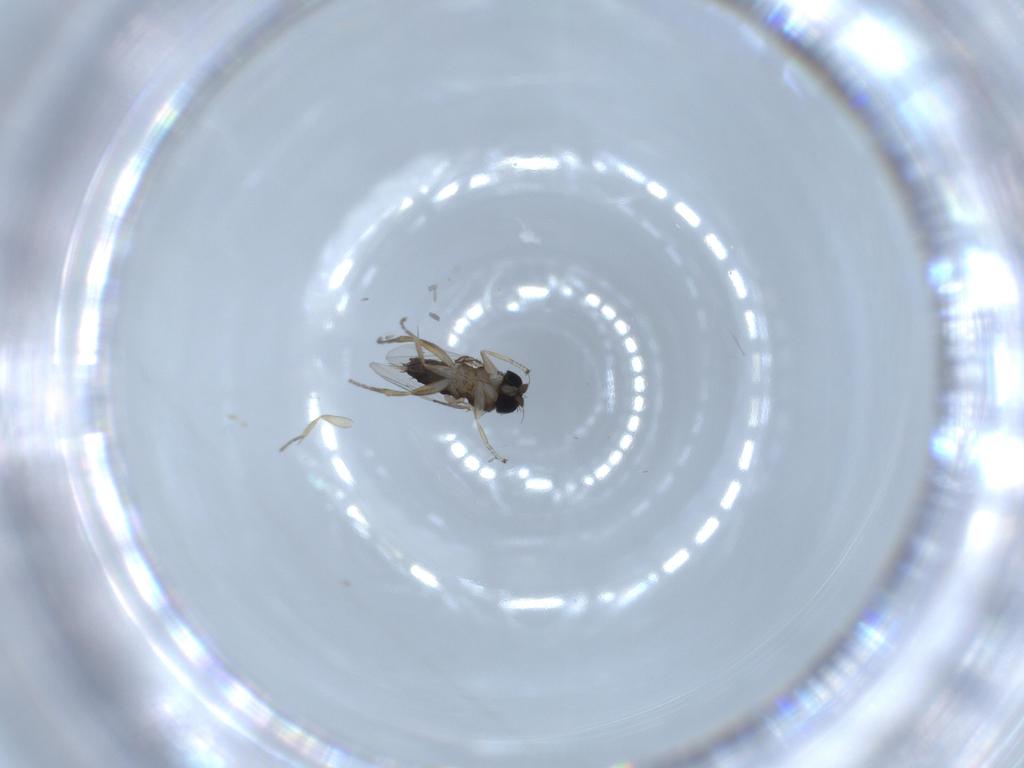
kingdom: Animalia
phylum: Arthropoda
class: Insecta
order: Diptera
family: Phoridae
